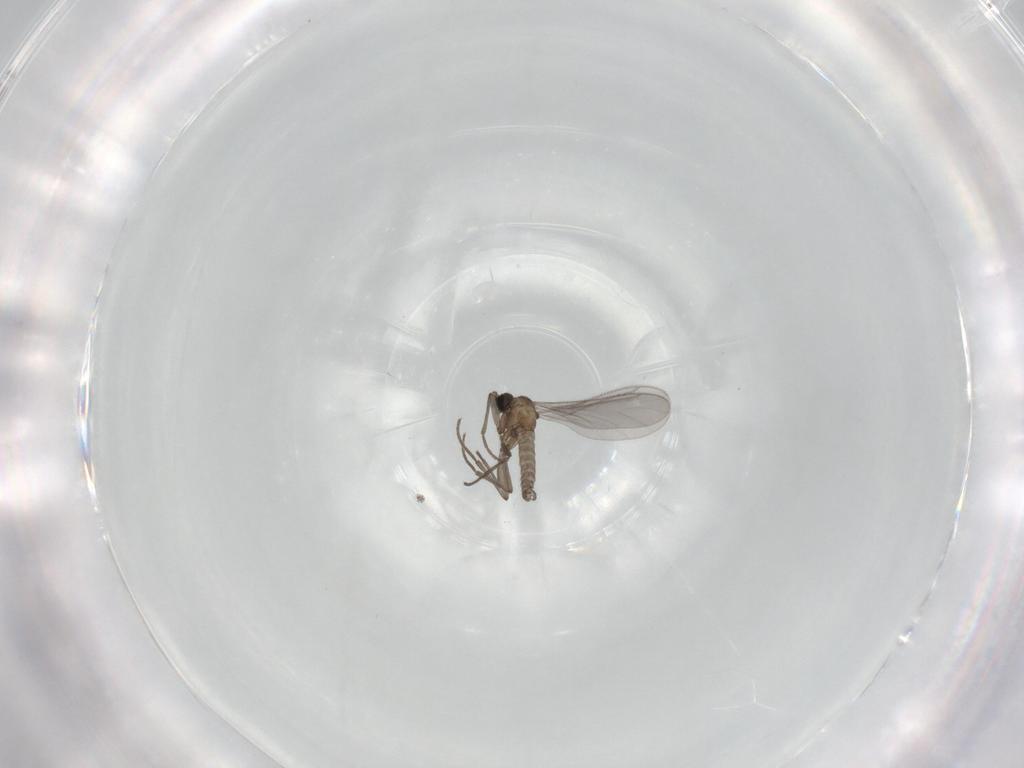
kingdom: Animalia
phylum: Arthropoda
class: Insecta
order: Diptera
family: Sciaridae
